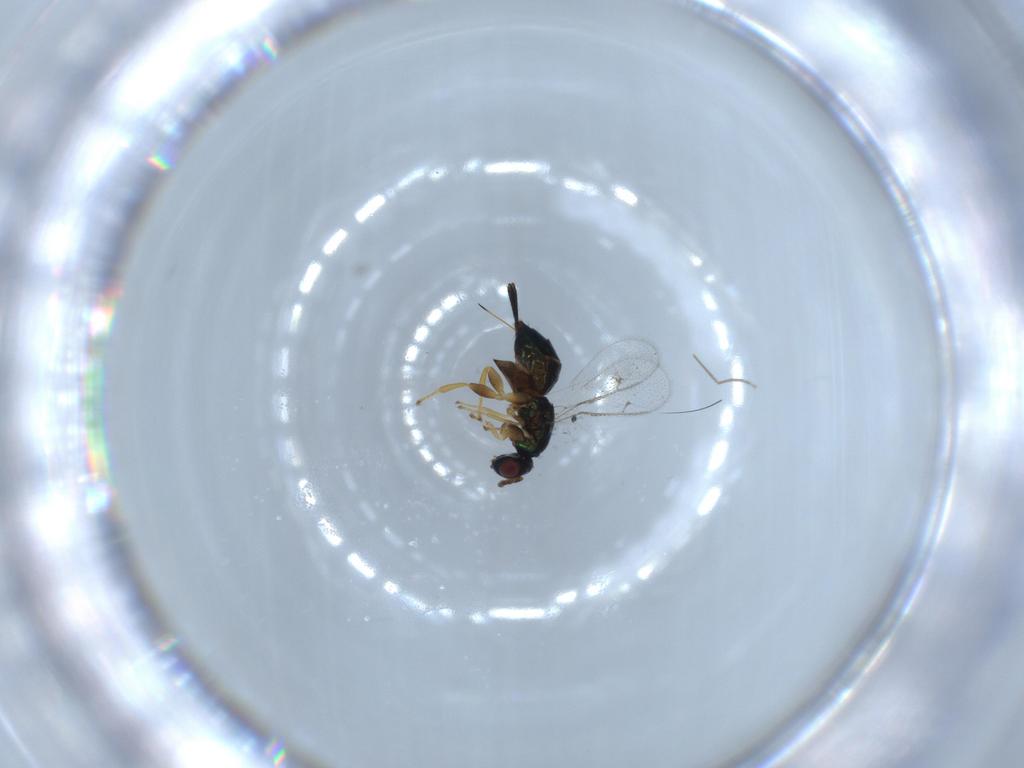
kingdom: Animalia
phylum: Arthropoda
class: Insecta
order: Hymenoptera
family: Torymidae
